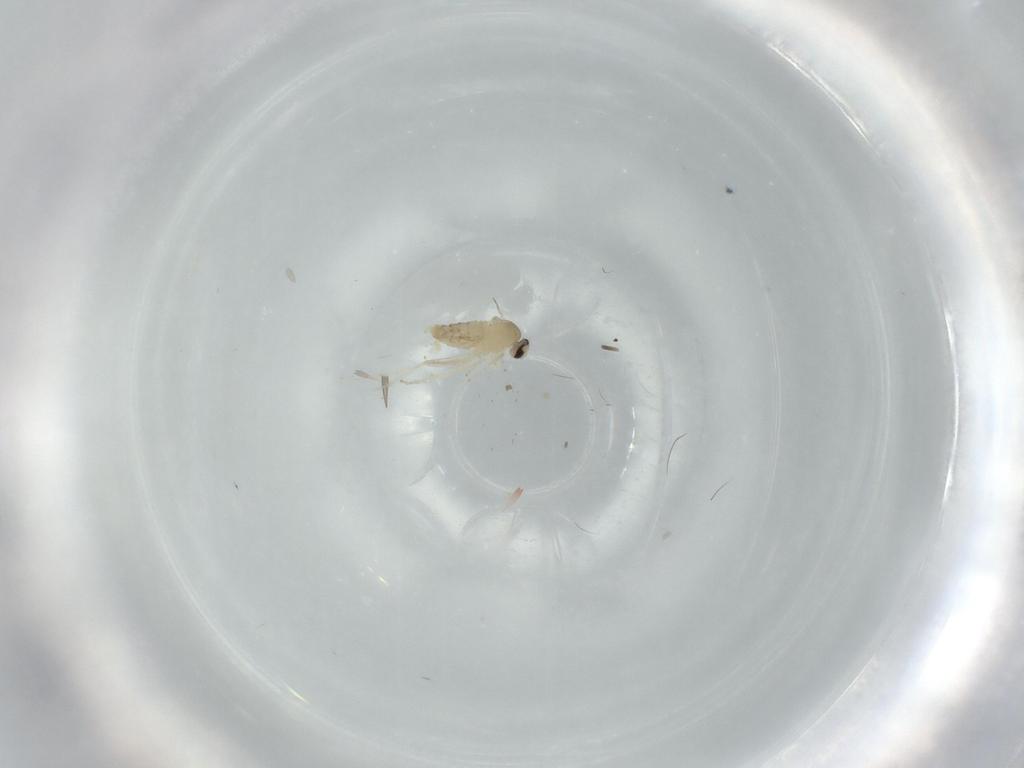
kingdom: Animalia
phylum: Arthropoda
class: Insecta
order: Diptera
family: Cecidomyiidae
